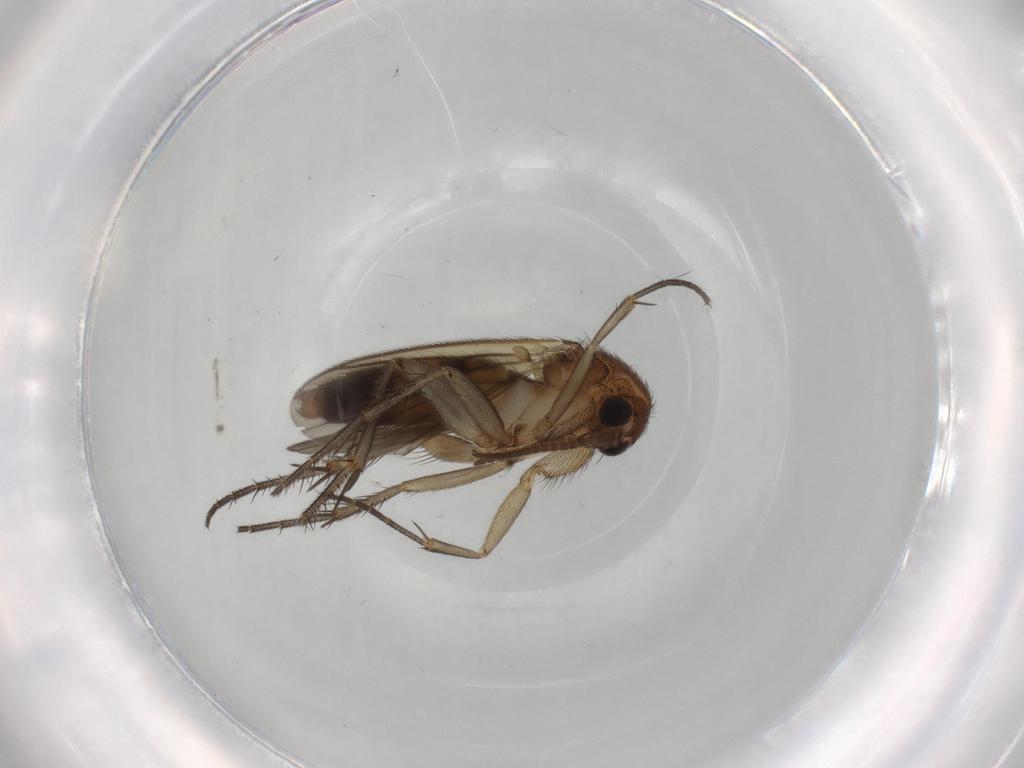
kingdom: Animalia
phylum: Arthropoda
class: Insecta
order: Diptera
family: Mycetophilidae
